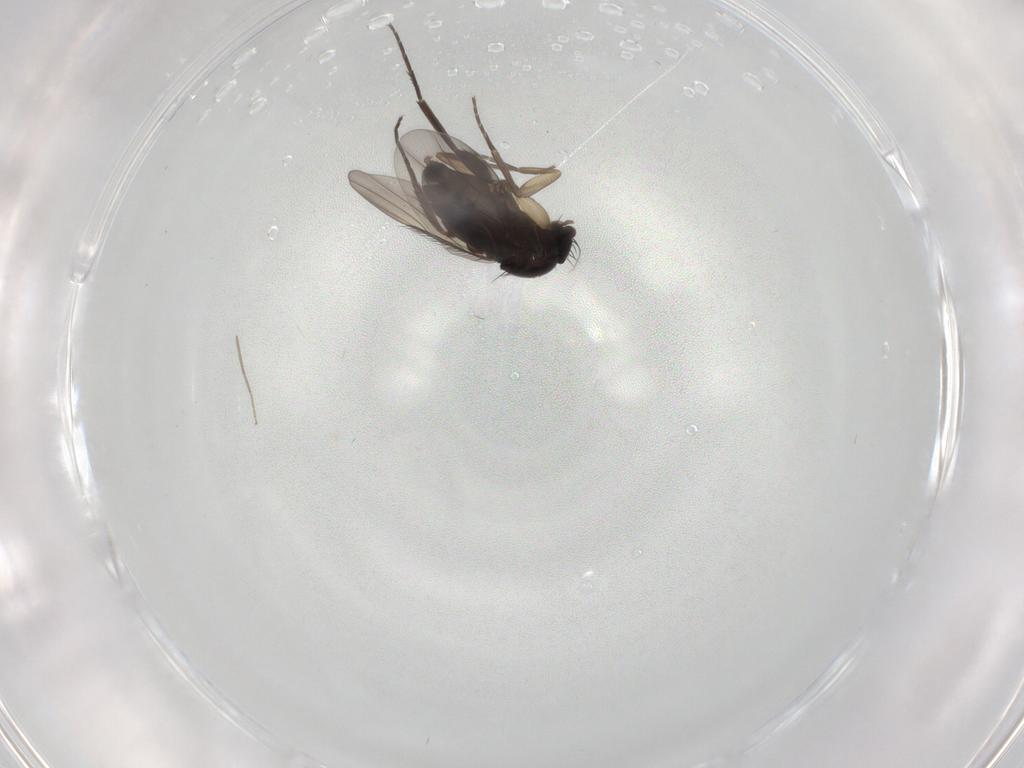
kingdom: Animalia
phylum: Arthropoda
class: Insecta
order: Diptera
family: Phoridae
